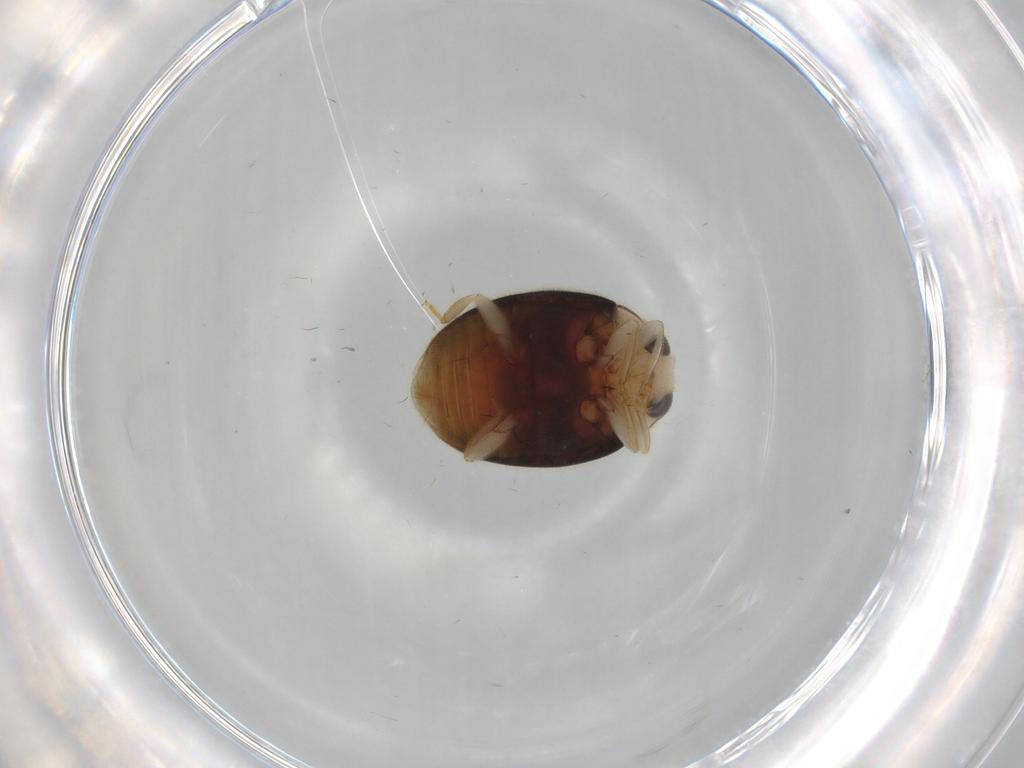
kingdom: Animalia
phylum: Arthropoda
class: Insecta
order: Coleoptera
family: Coccinellidae
